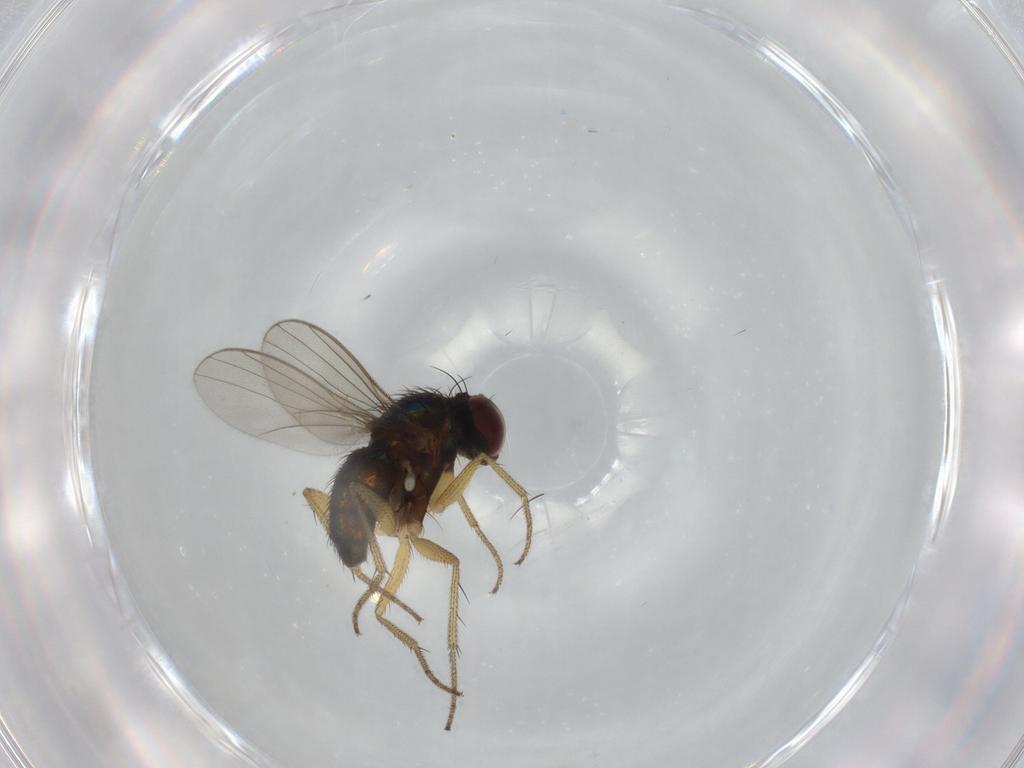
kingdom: Animalia
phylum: Arthropoda
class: Insecta
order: Diptera
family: Dolichopodidae
